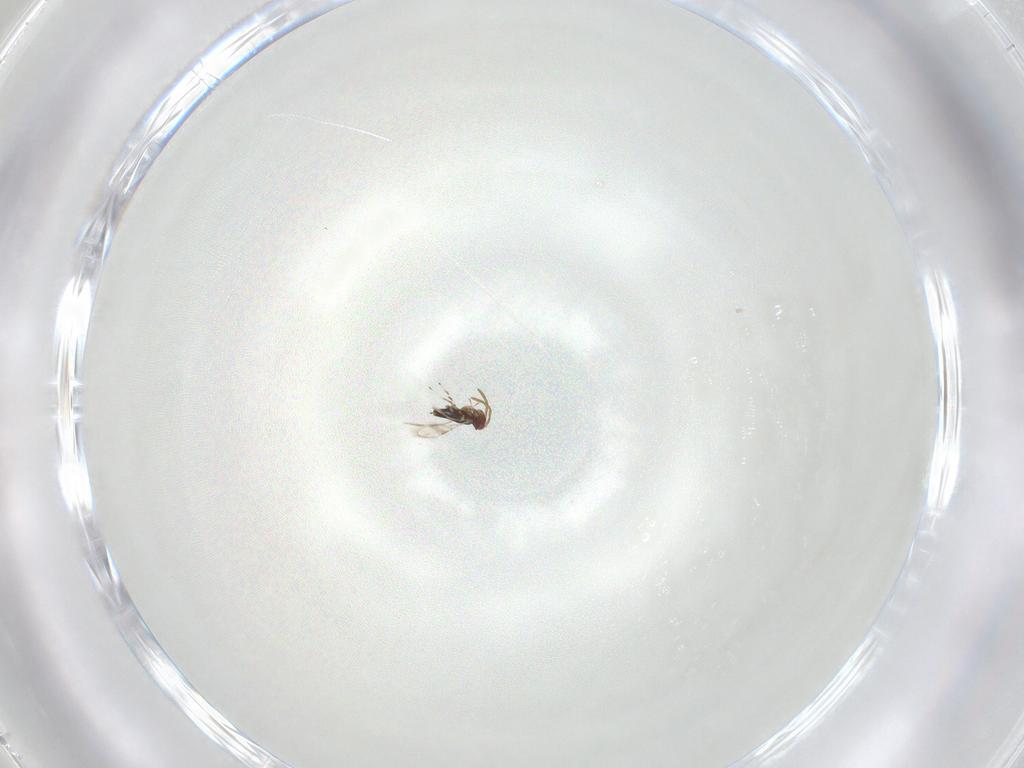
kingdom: Animalia
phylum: Arthropoda
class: Insecta
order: Hymenoptera
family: Azotidae
